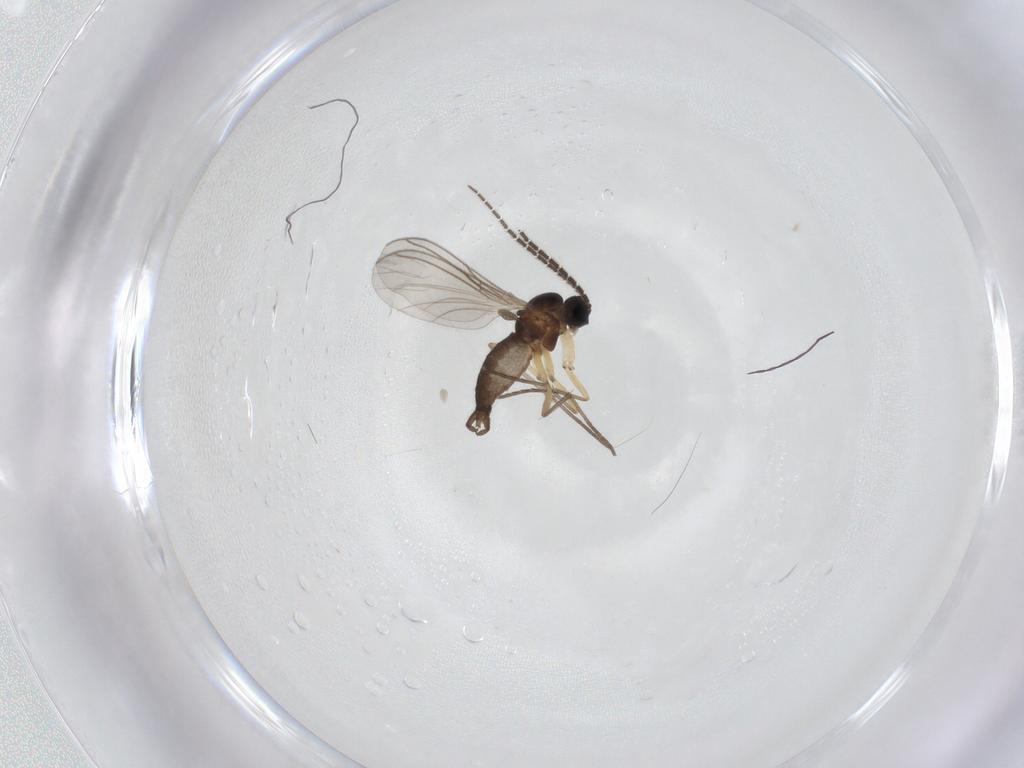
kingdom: Animalia
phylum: Arthropoda
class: Insecta
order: Diptera
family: Sciaridae
